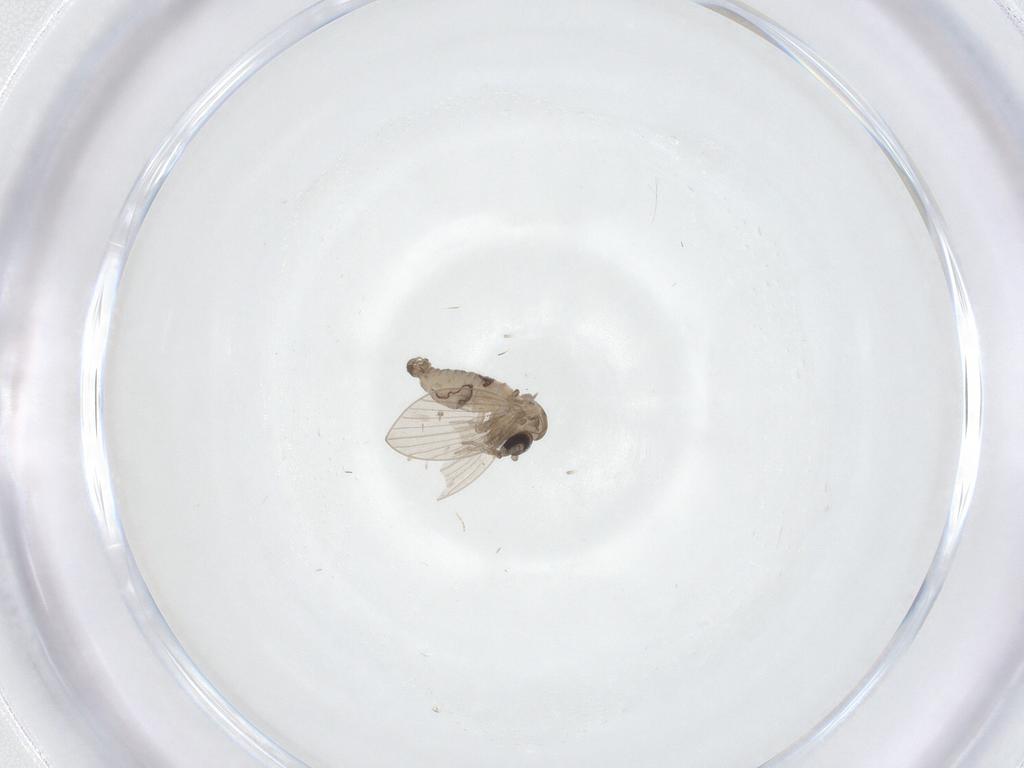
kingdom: Animalia
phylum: Arthropoda
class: Insecta
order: Diptera
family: Psychodidae
